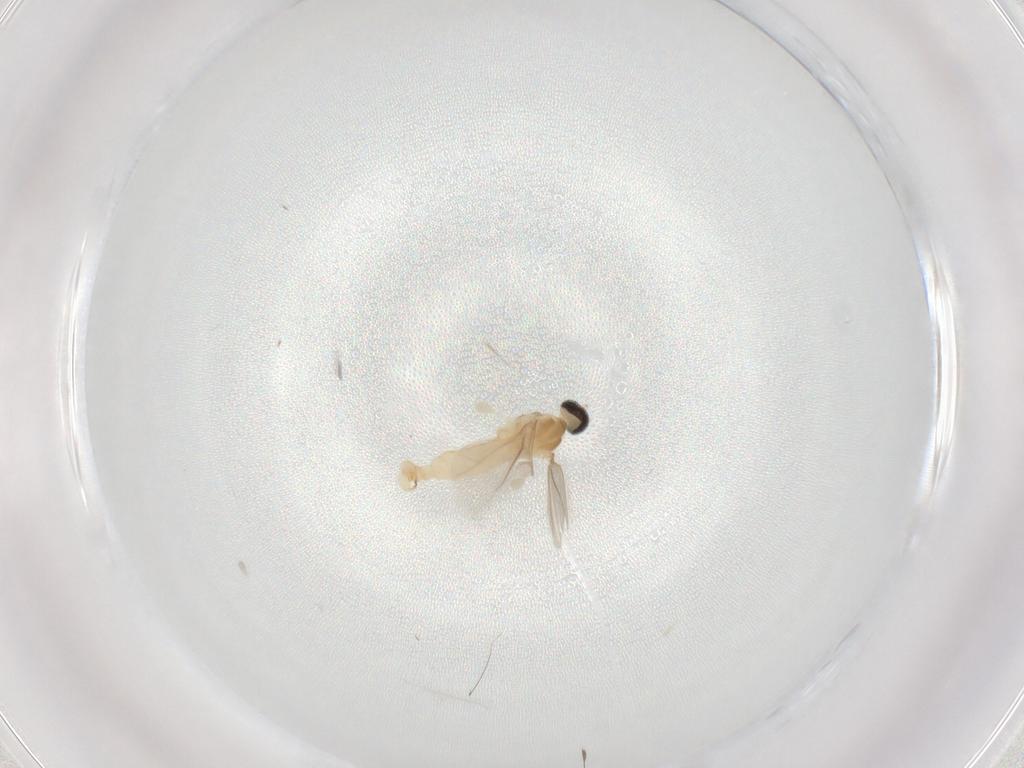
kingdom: Animalia
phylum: Arthropoda
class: Insecta
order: Diptera
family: Cecidomyiidae
